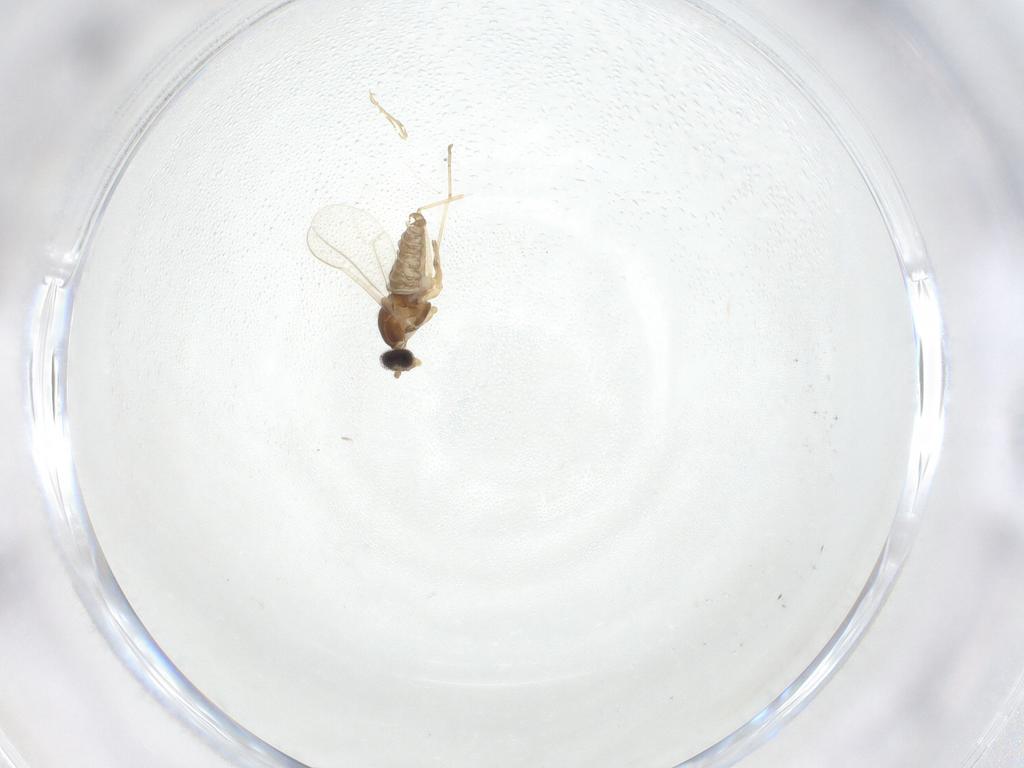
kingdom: Animalia
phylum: Arthropoda
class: Insecta
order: Diptera
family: Cecidomyiidae
